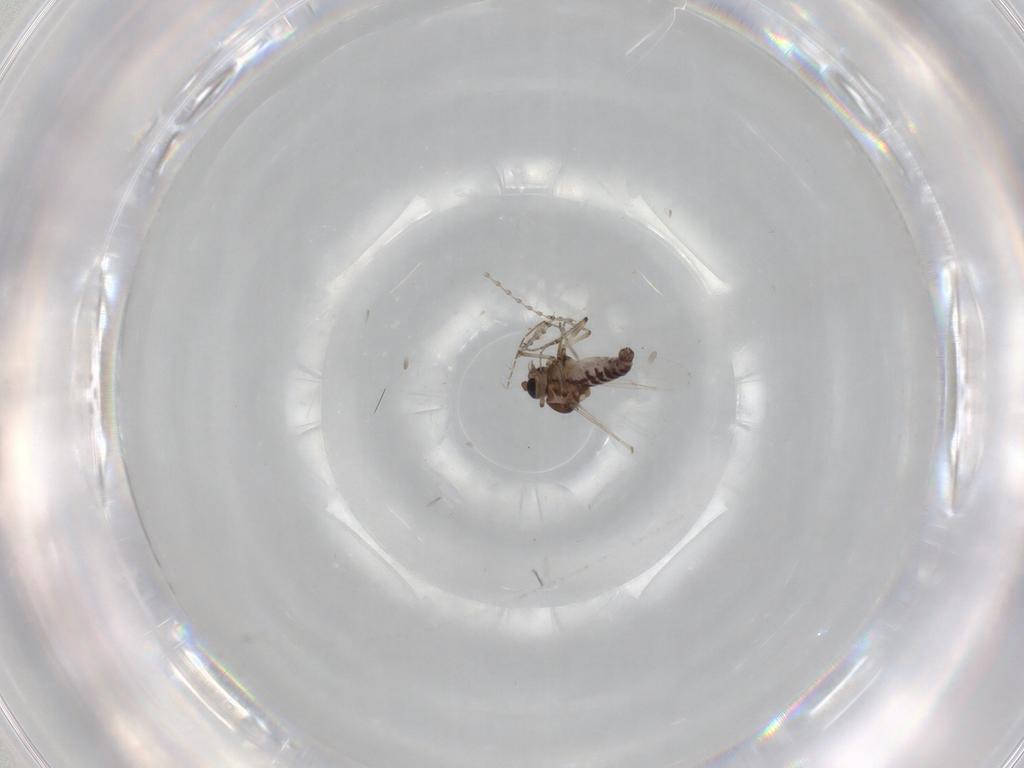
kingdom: Animalia
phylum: Arthropoda
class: Insecta
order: Diptera
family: Ceratopogonidae
